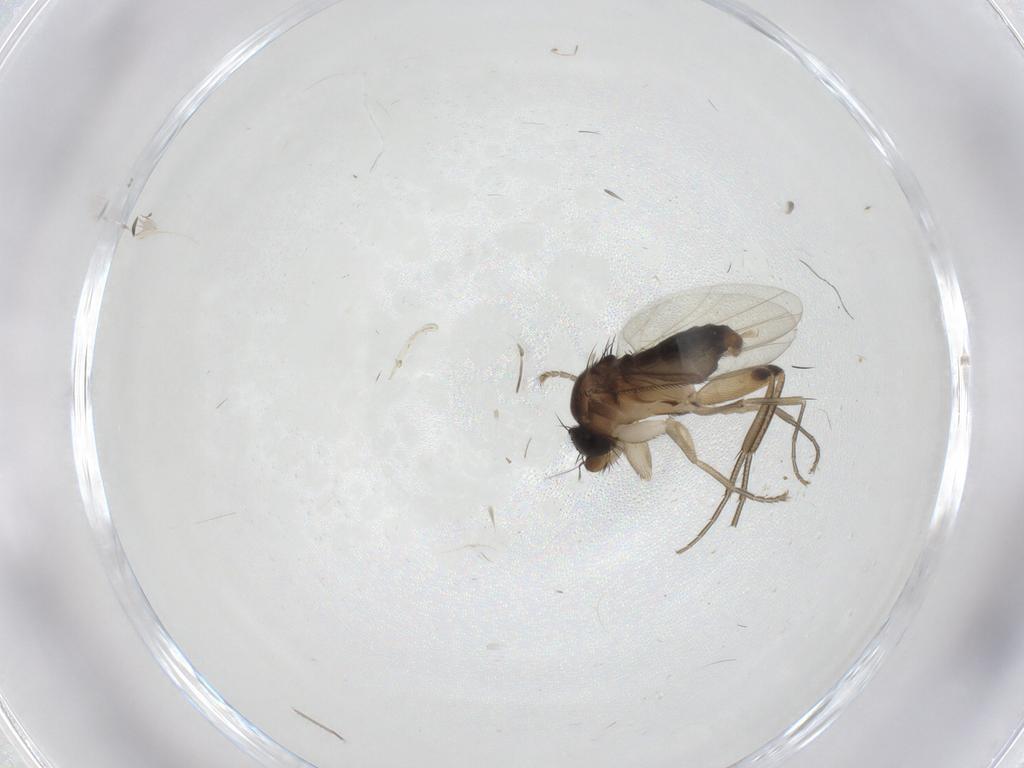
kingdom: Animalia
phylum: Arthropoda
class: Insecta
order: Diptera
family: Phoridae
